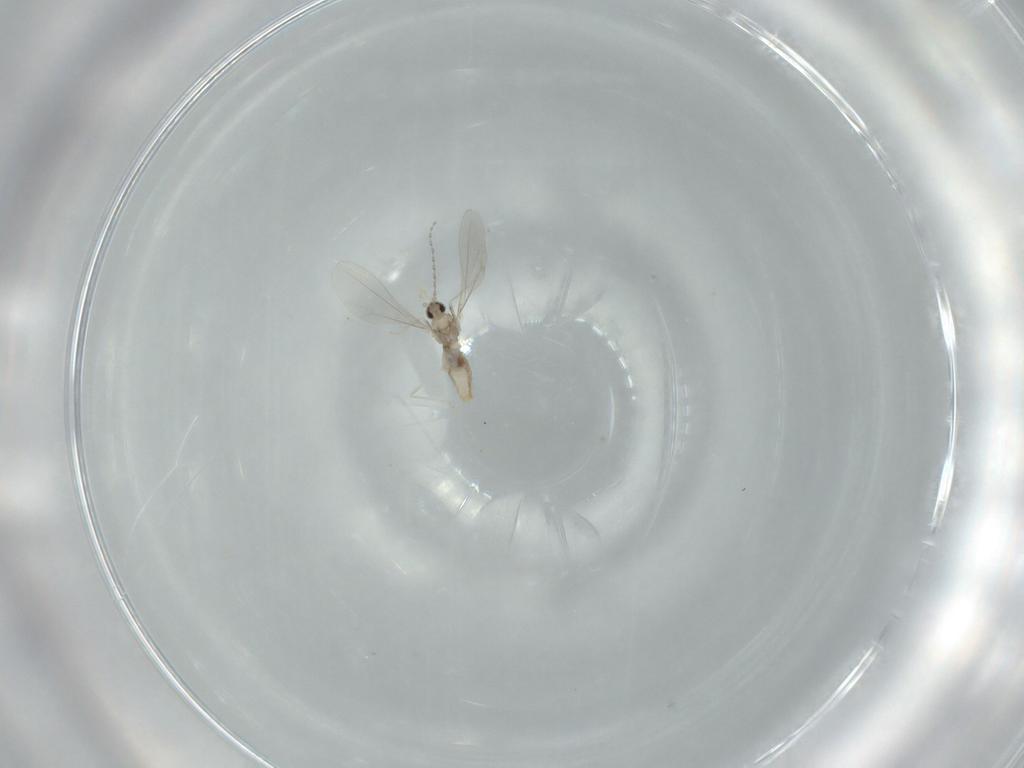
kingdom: Animalia
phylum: Arthropoda
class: Insecta
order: Diptera
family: Cecidomyiidae
